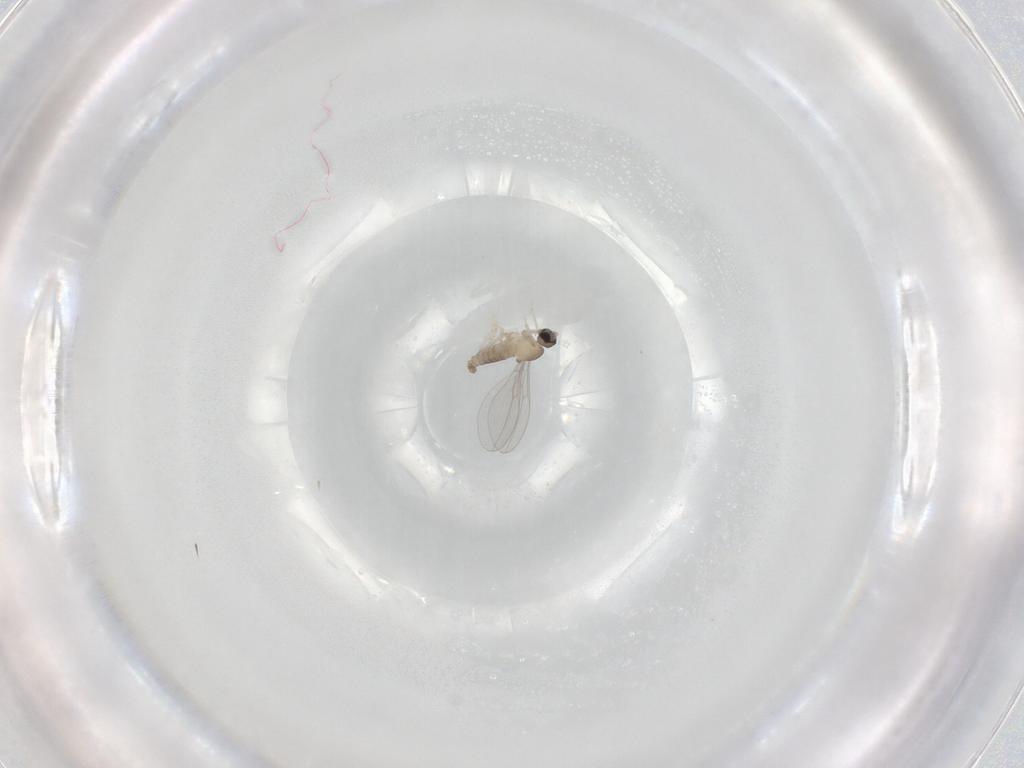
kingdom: Animalia
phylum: Arthropoda
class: Insecta
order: Diptera
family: Cecidomyiidae
